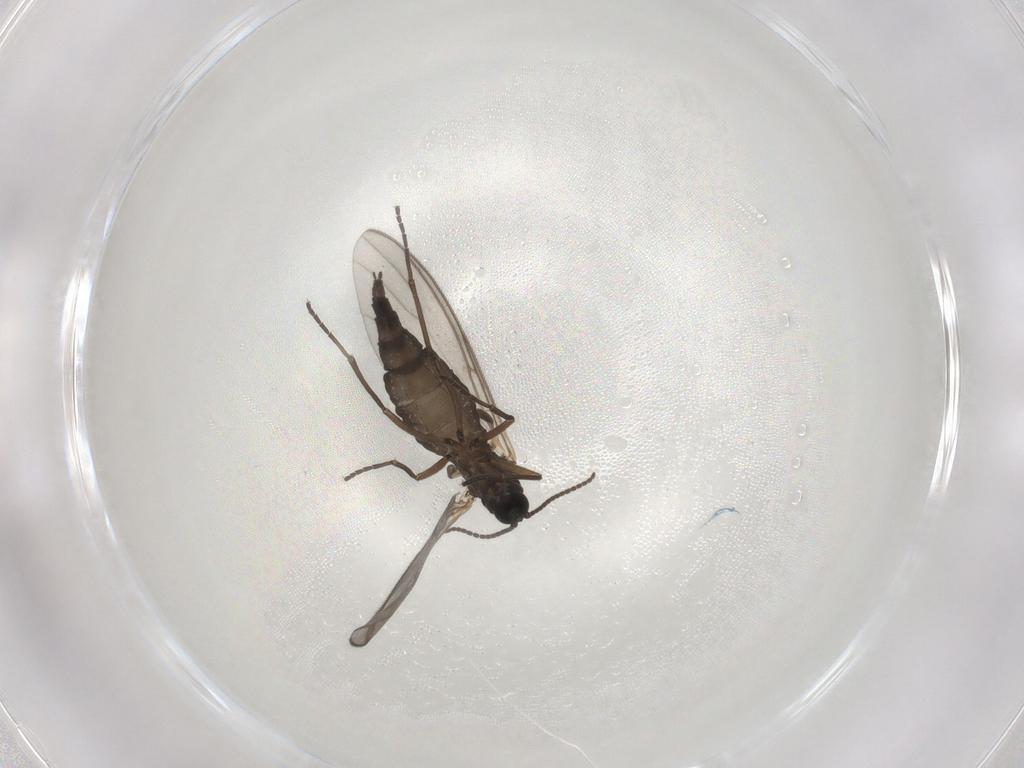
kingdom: Animalia
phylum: Arthropoda
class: Insecta
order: Diptera
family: Sciaridae
